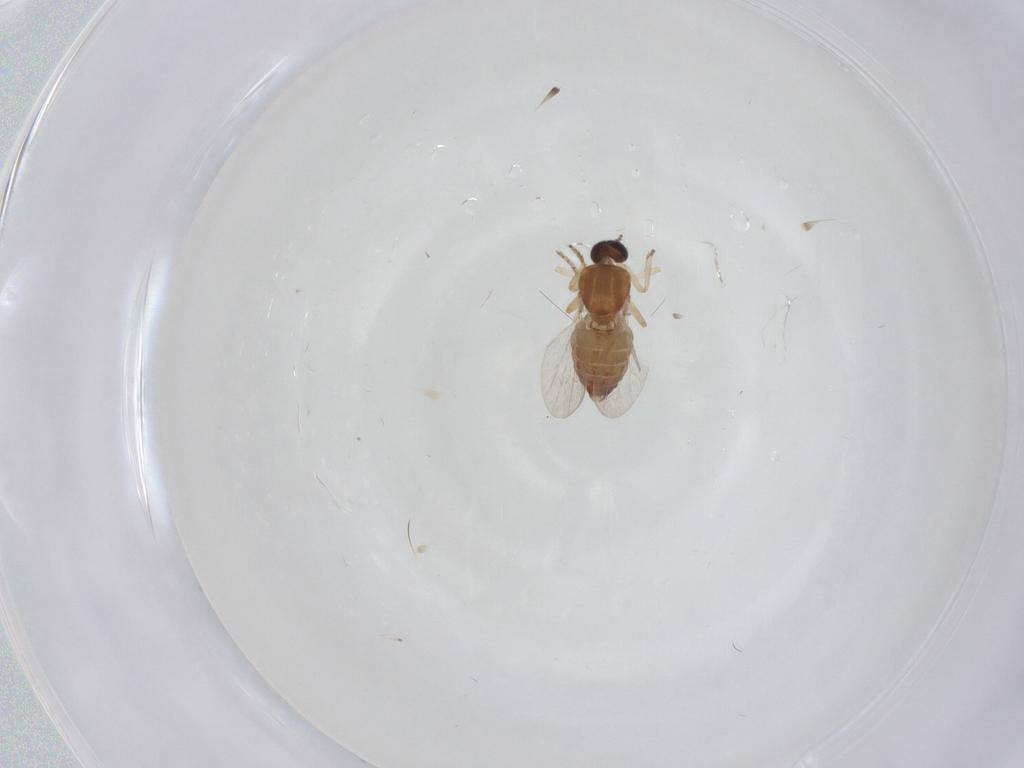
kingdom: Animalia
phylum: Arthropoda
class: Insecta
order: Diptera
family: Ceratopogonidae
